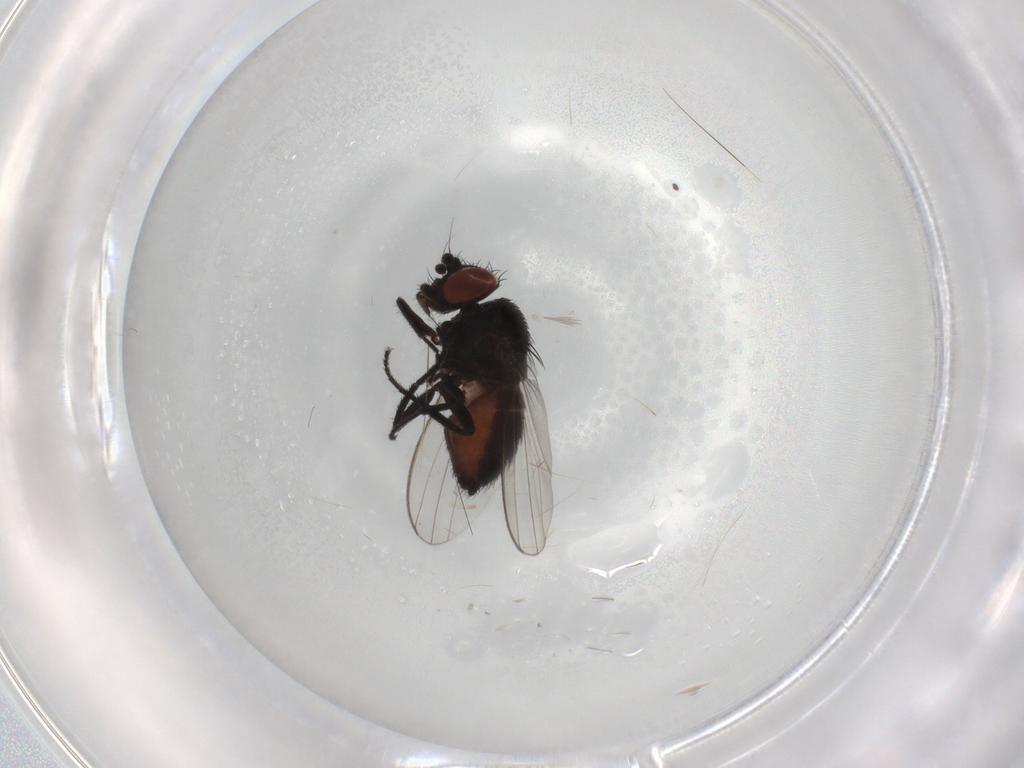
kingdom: Animalia
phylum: Arthropoda
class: Insecta
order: Diptera
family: Milichiidae
